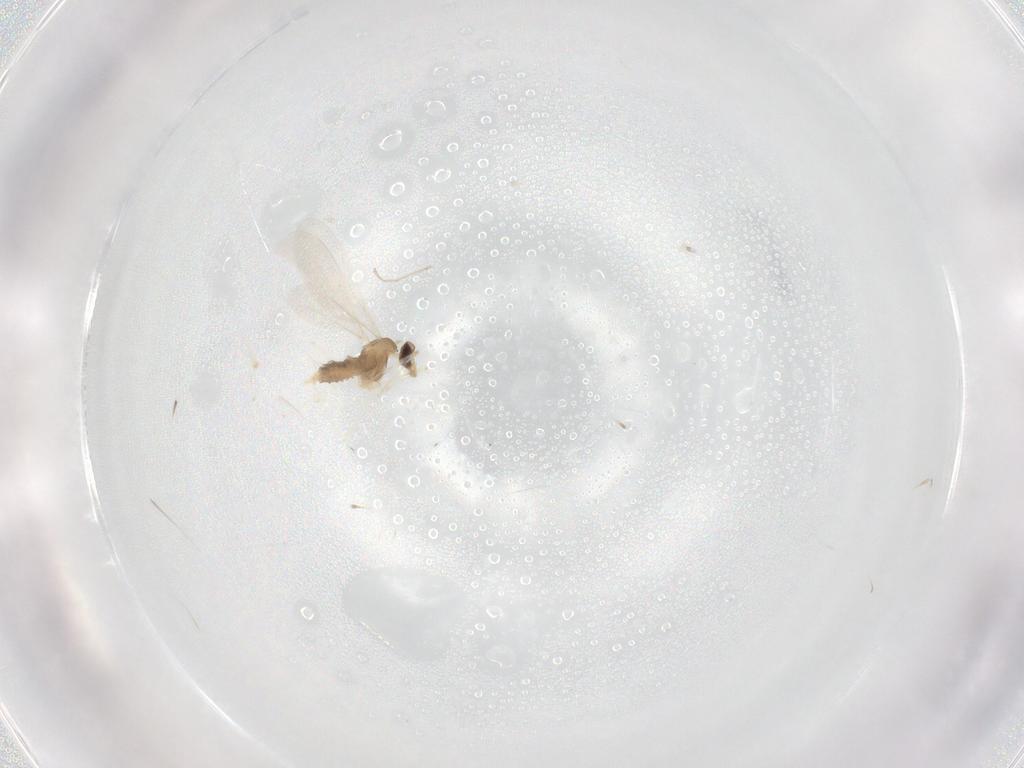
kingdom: Animalia
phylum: Arthropoda
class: Insecta
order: Diptera
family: Cecidomyiidae
